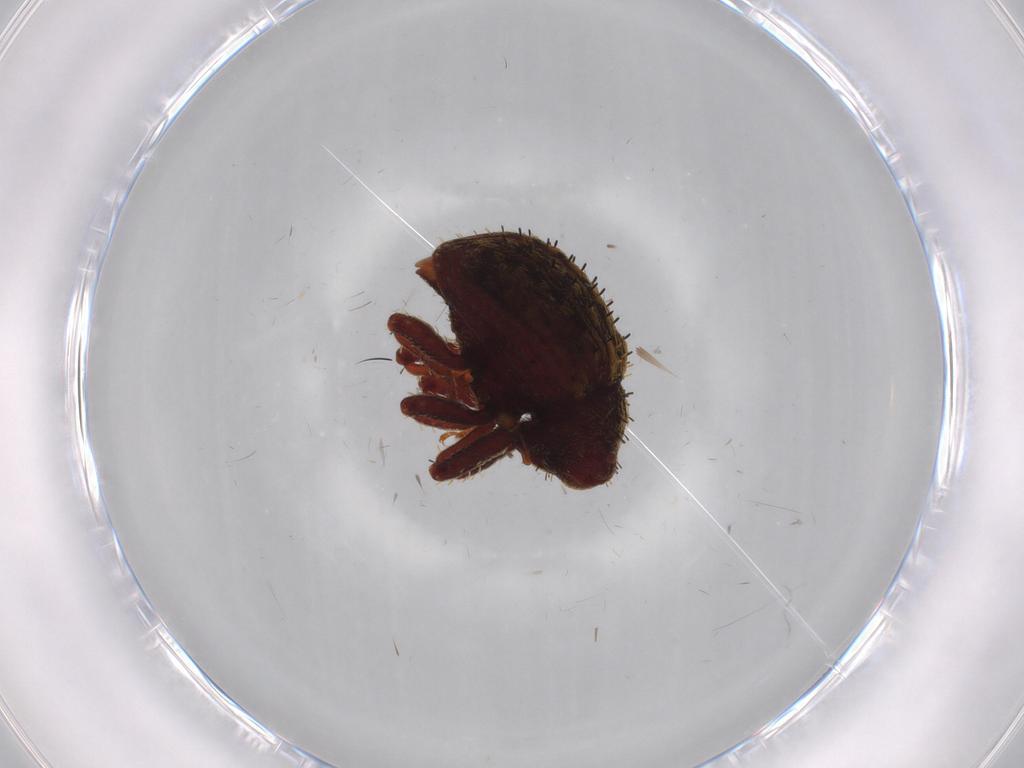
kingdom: Animalia
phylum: Arthropoda
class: Insecta
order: Coleoptera
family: Curculionidae
